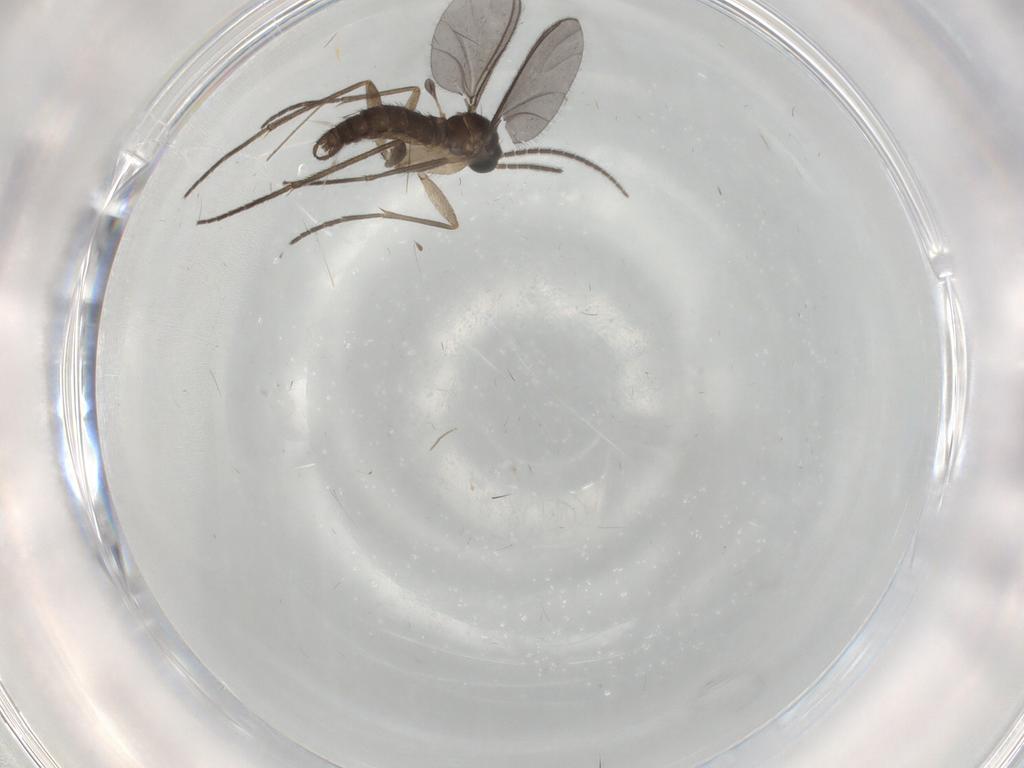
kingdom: Animalia
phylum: Arthropoda
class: Insecta
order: Diptera
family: Sciaridae
